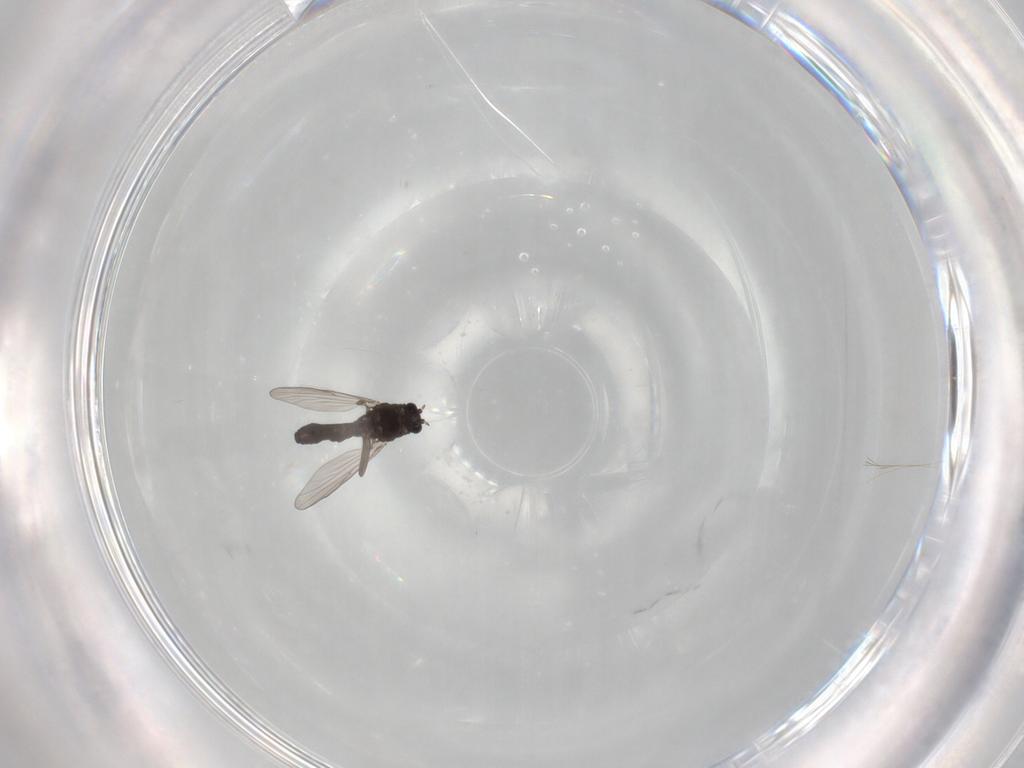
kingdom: Animalia
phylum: Arthropoda
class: Insecta
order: Diptera
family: Chironomidae
